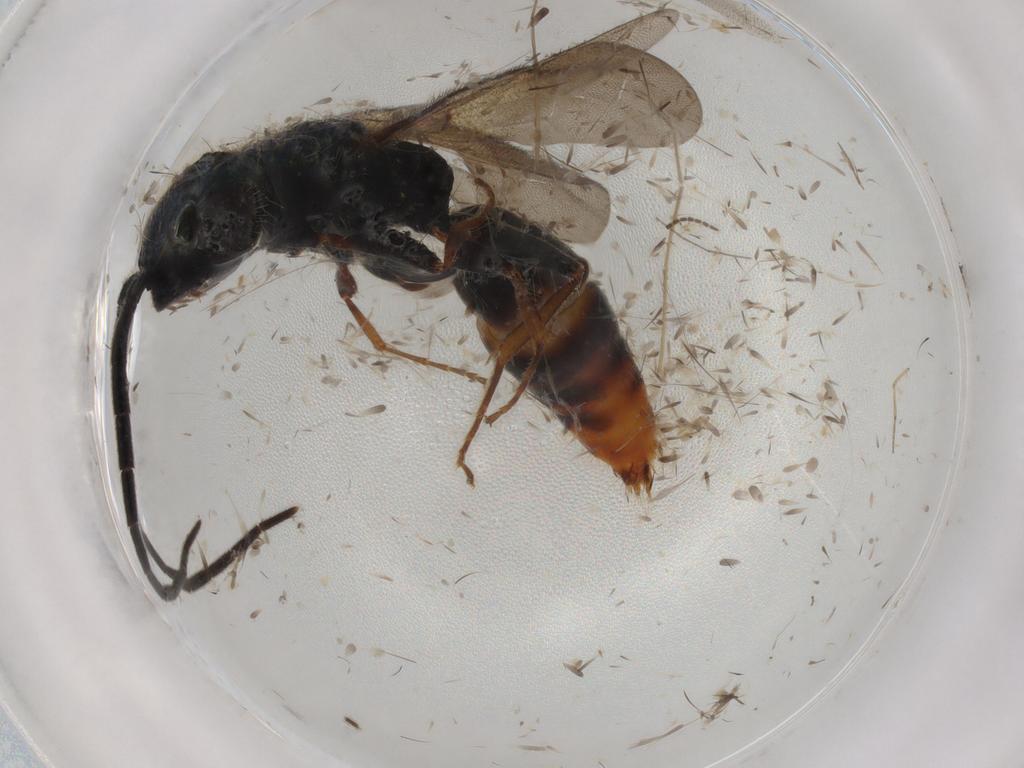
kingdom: Animalia
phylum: Arthropoda
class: Insecta
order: Hymenoptera
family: Bethylidae
